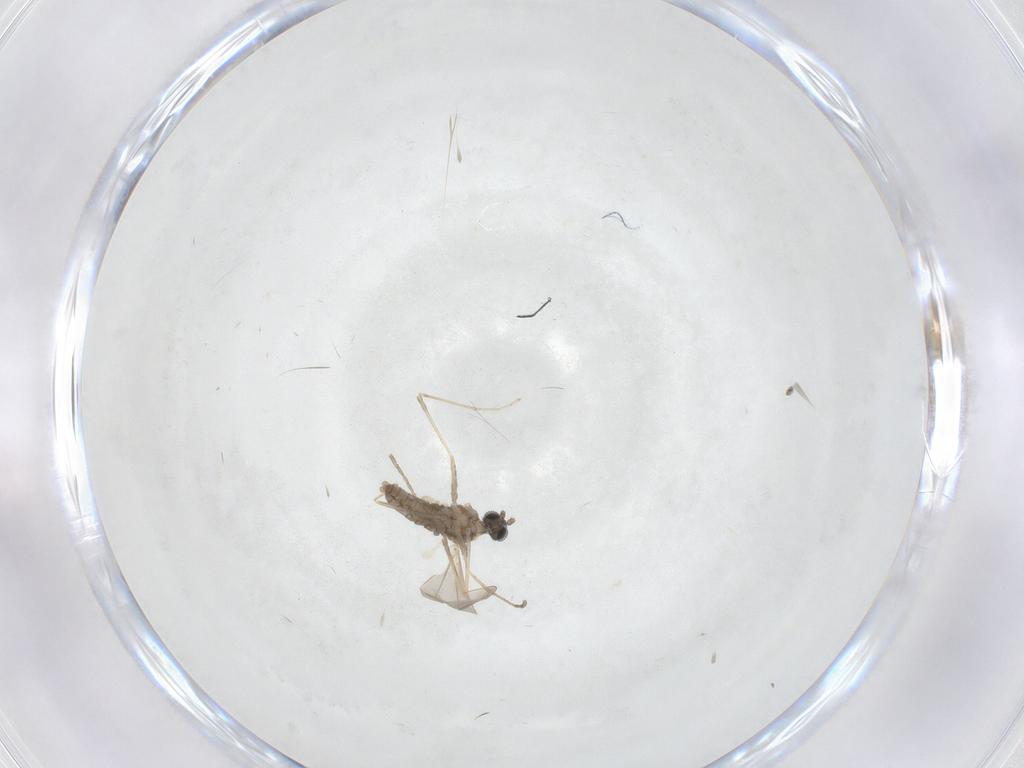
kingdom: Animalia
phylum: Arthropoda
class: Insecta
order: Diptera
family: Cecidomyiidae
